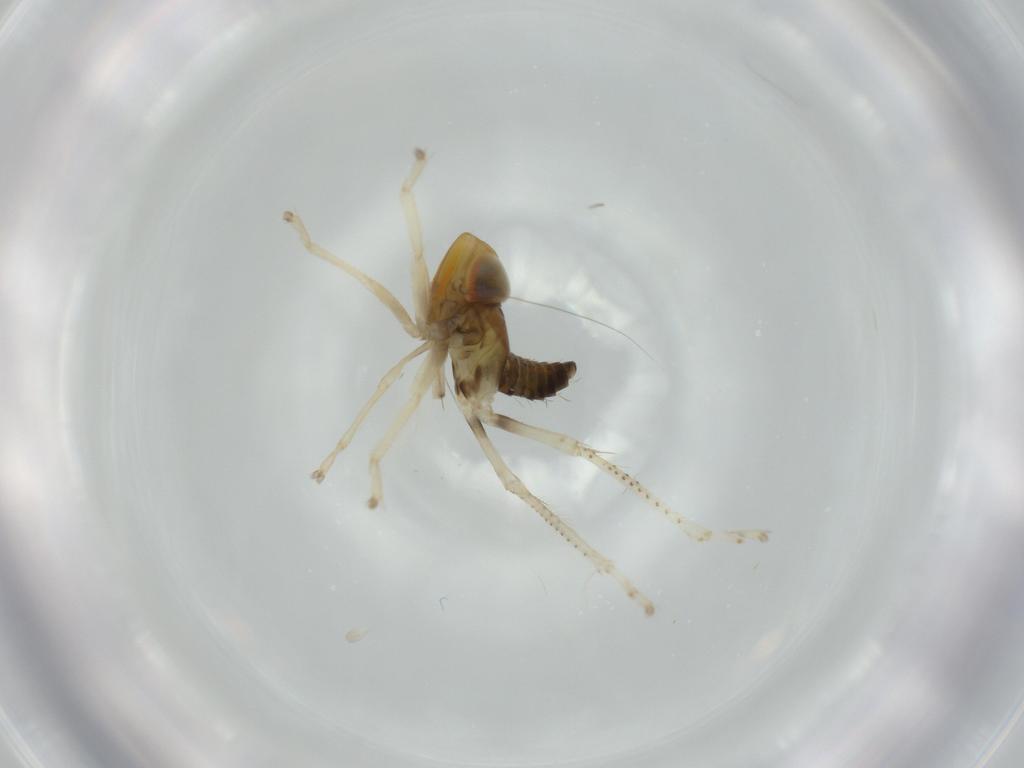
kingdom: Animalia
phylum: Arthropoda
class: Insecta
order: Hemiptera
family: Cicadellidae
